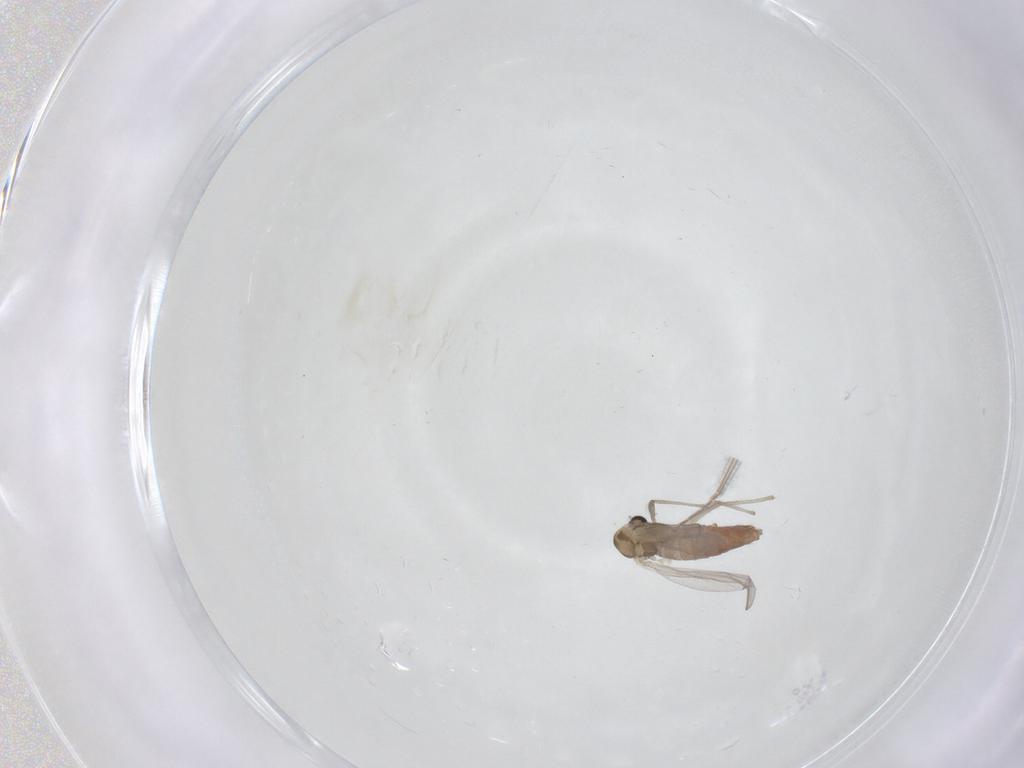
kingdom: Animalia
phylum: Arthropoda
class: Insecta
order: Diptera
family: Chironomidae
